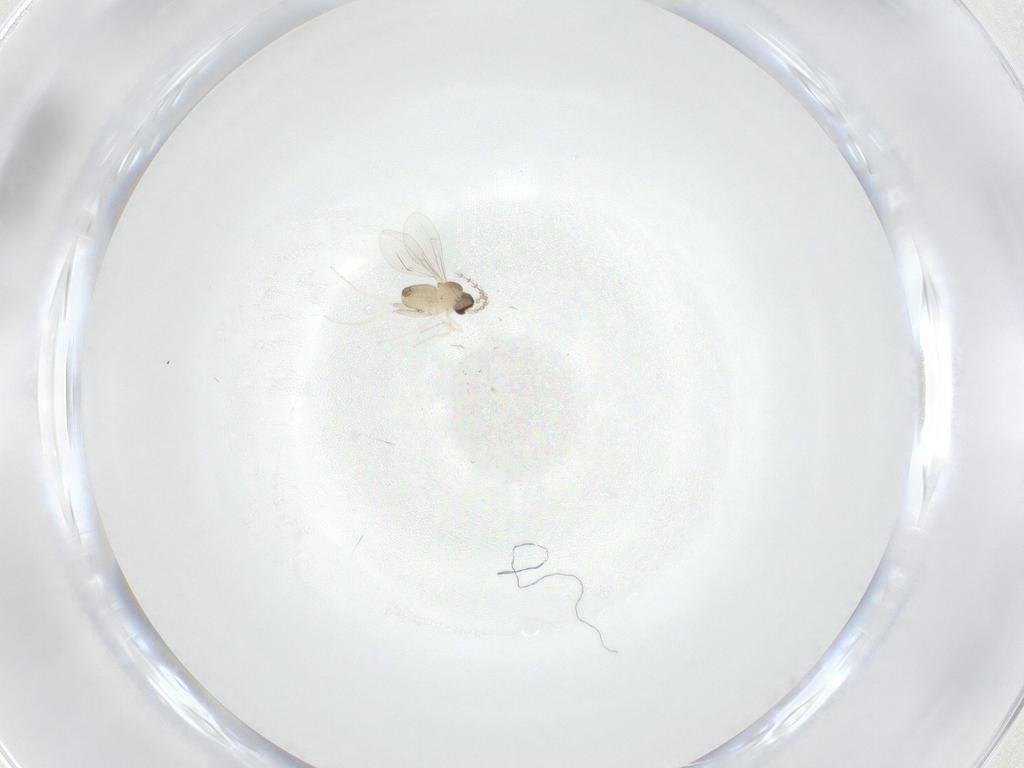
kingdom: Animalia
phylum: Arthropoda
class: Insecta
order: Diptera
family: Cecidomyiidae
